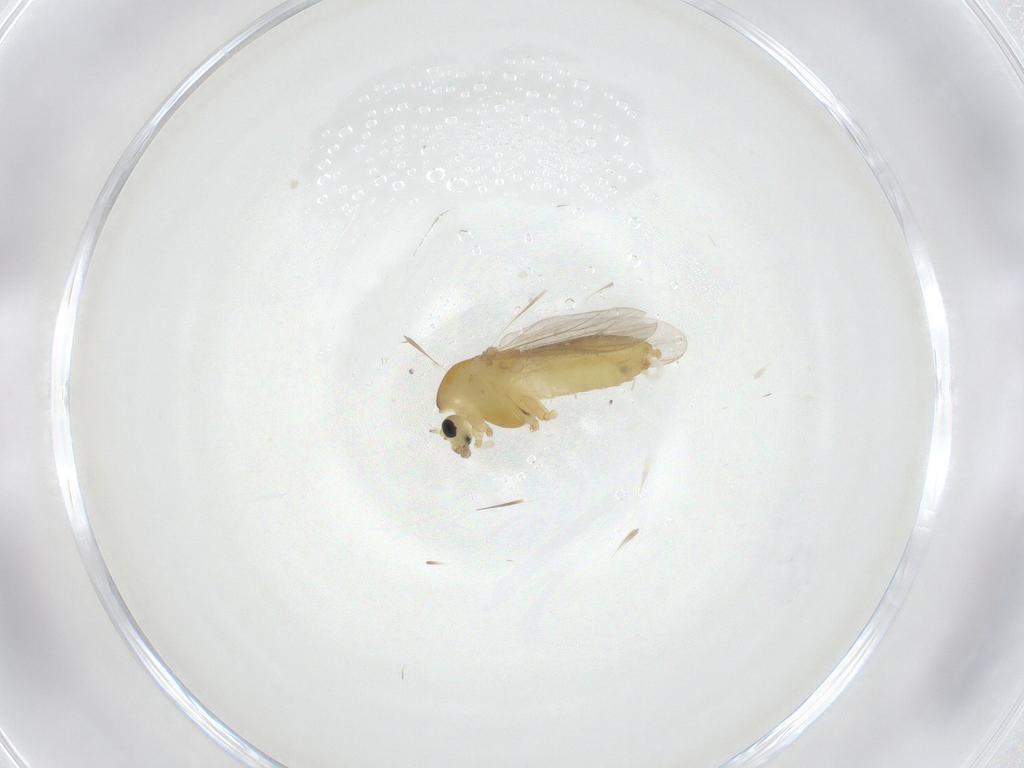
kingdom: Animalia
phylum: Arthropoda
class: Insecta
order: Diptera
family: Chironomidae
